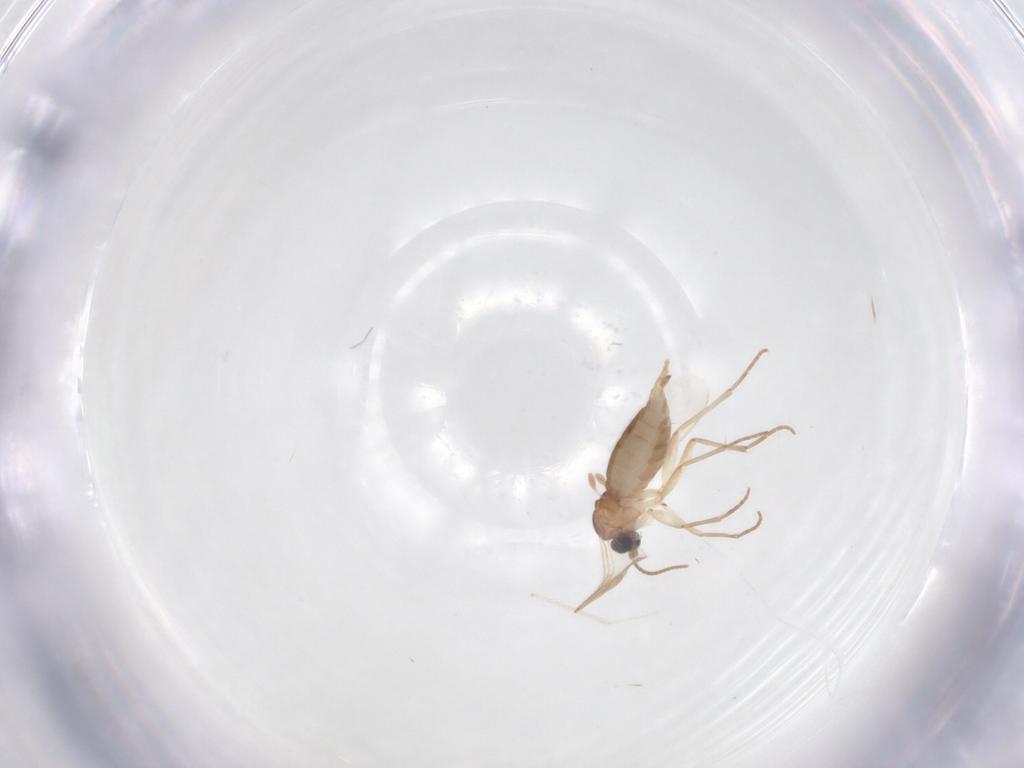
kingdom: Animalia
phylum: Arthropoda
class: Insecta
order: Diptera
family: Sciaridae
